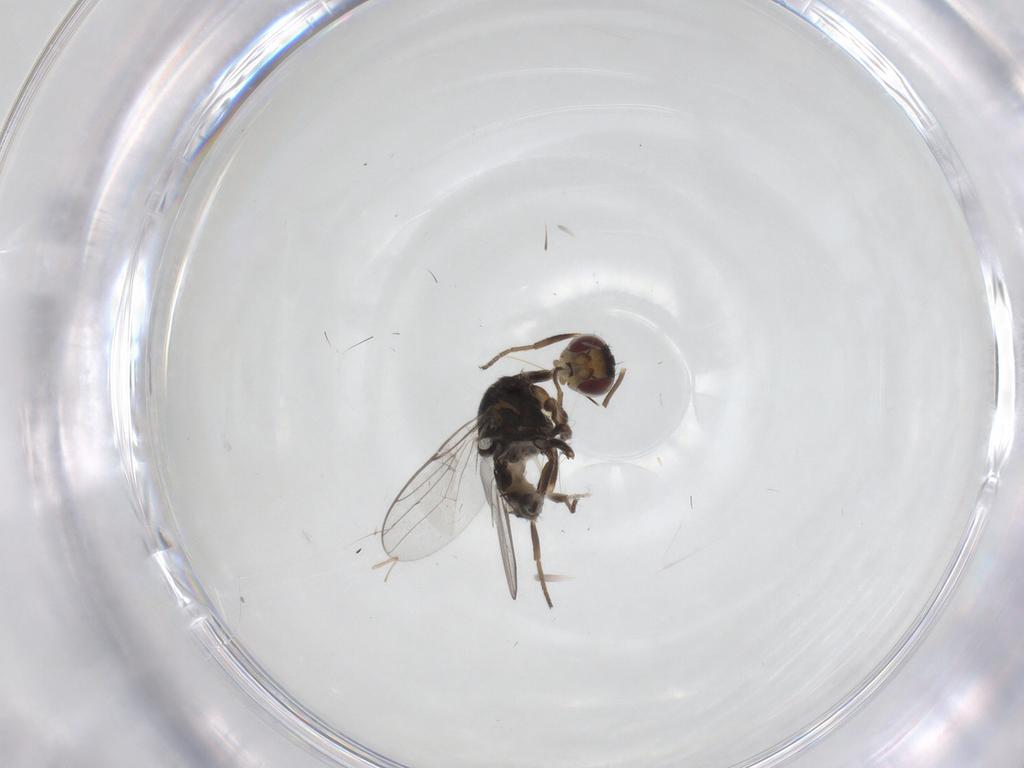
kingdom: Animalia
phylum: Arthropoda
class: Insecta
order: Diptera
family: Chloropidae
